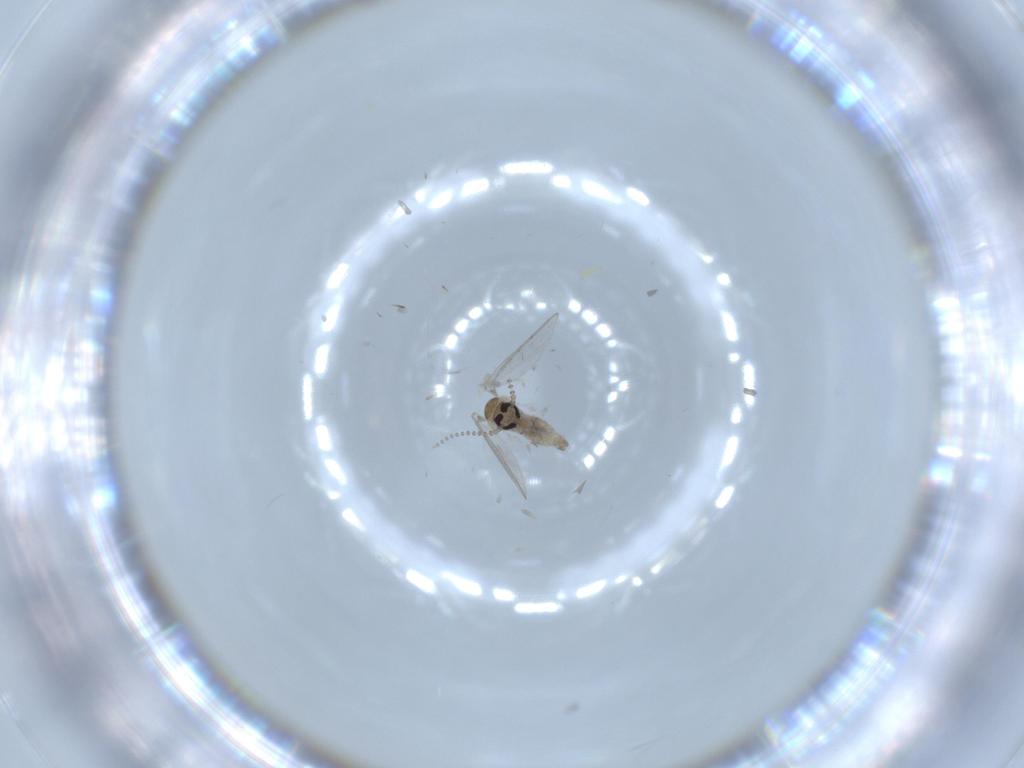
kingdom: Animalia
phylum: Arthropoda
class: Insecta
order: Diptera
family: Psychodidae
